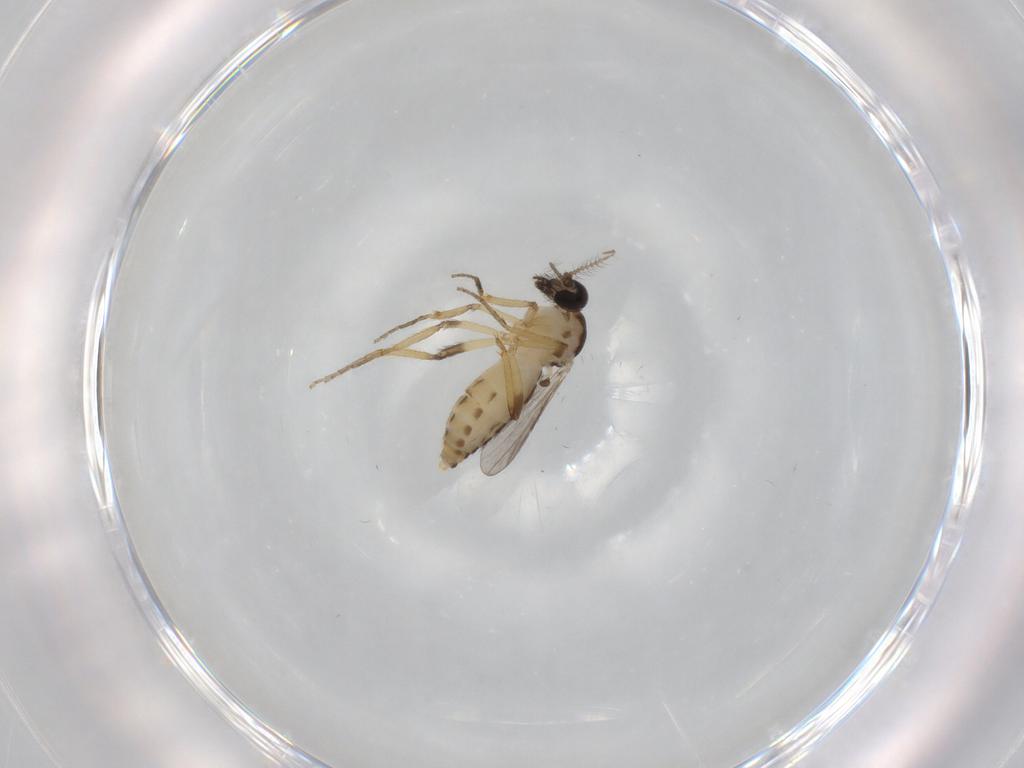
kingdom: Animalia
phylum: Arthropoda
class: Insecta
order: Diptera
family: Ceratopogonidae
